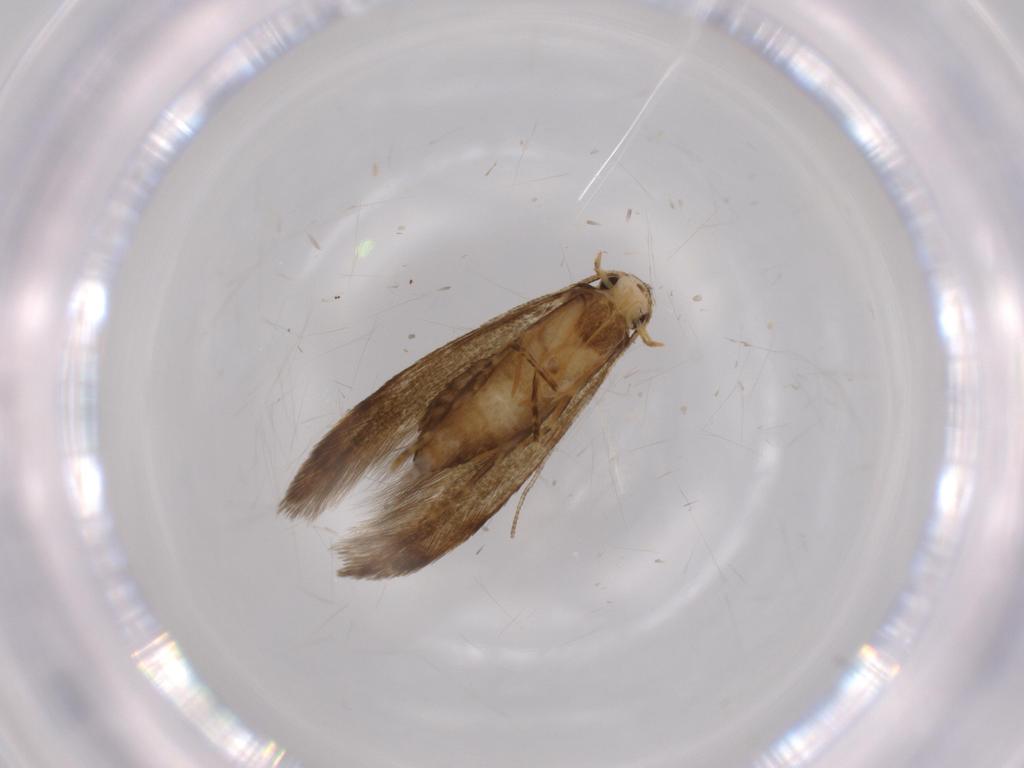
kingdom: Animalia
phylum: Arthropoda
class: Insecta
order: Lepidoptera
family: Tineidae
